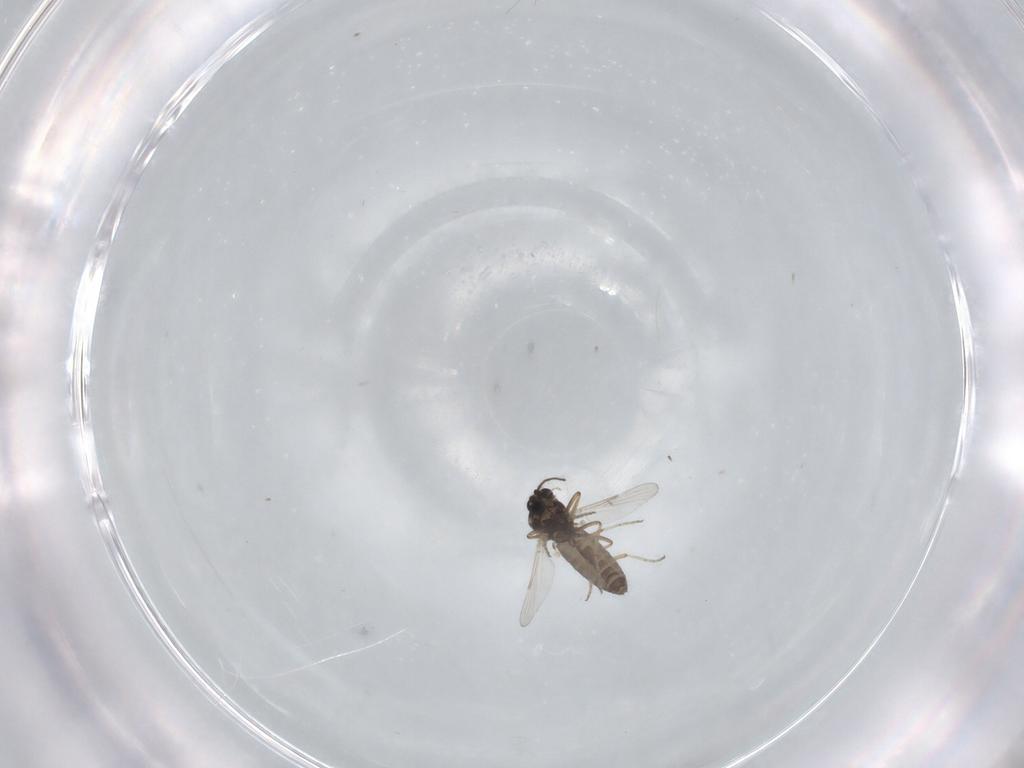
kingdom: Animalia
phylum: Arthropoda
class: Insecta
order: Diptera
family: Ceratopogonidae
